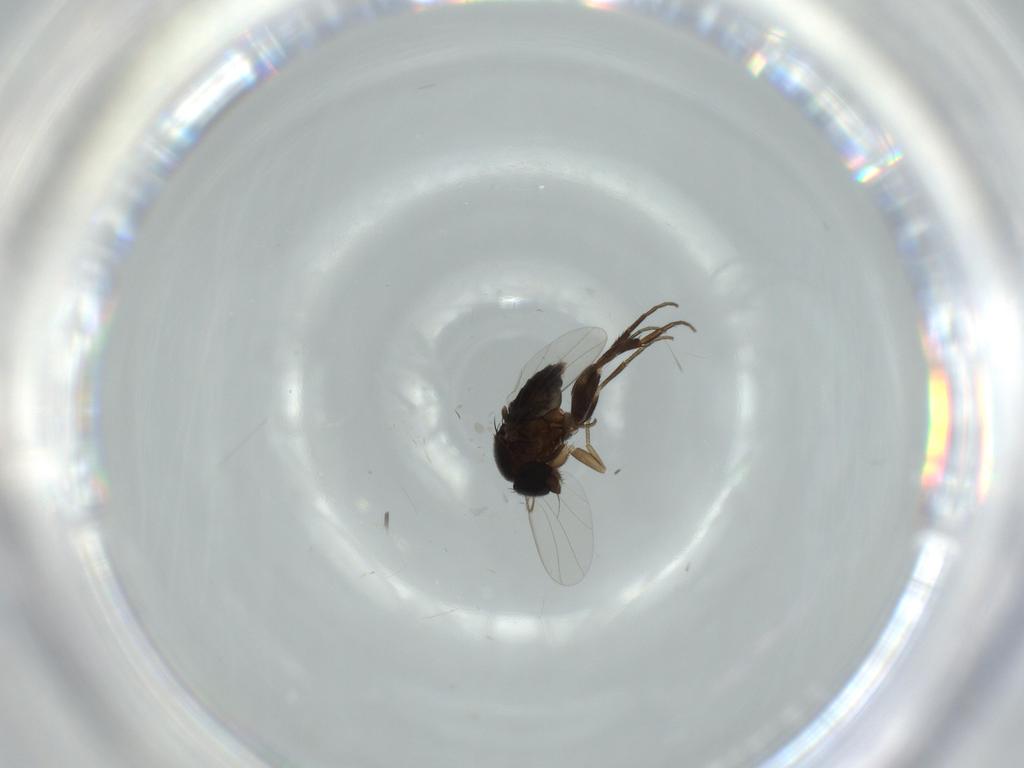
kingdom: Animalia
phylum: Arthropoda
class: Insecta
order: Diptera
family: Phoridae
